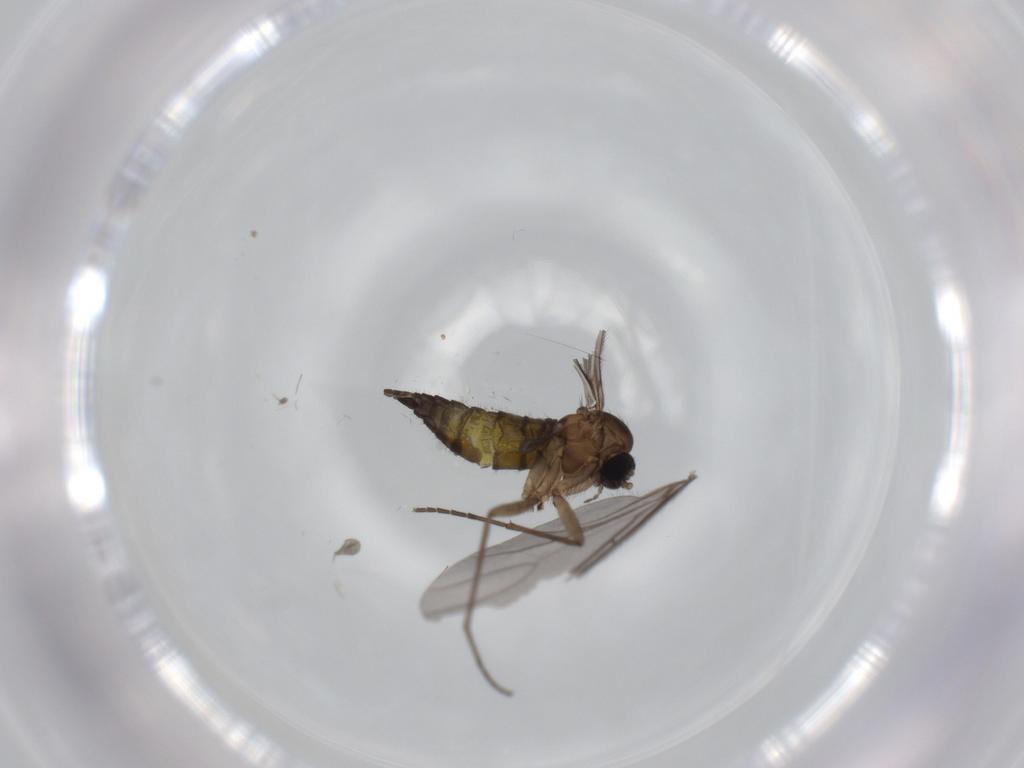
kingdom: Animalia
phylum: Arthropoda
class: Insecta
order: Diptera
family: Sciaridae
